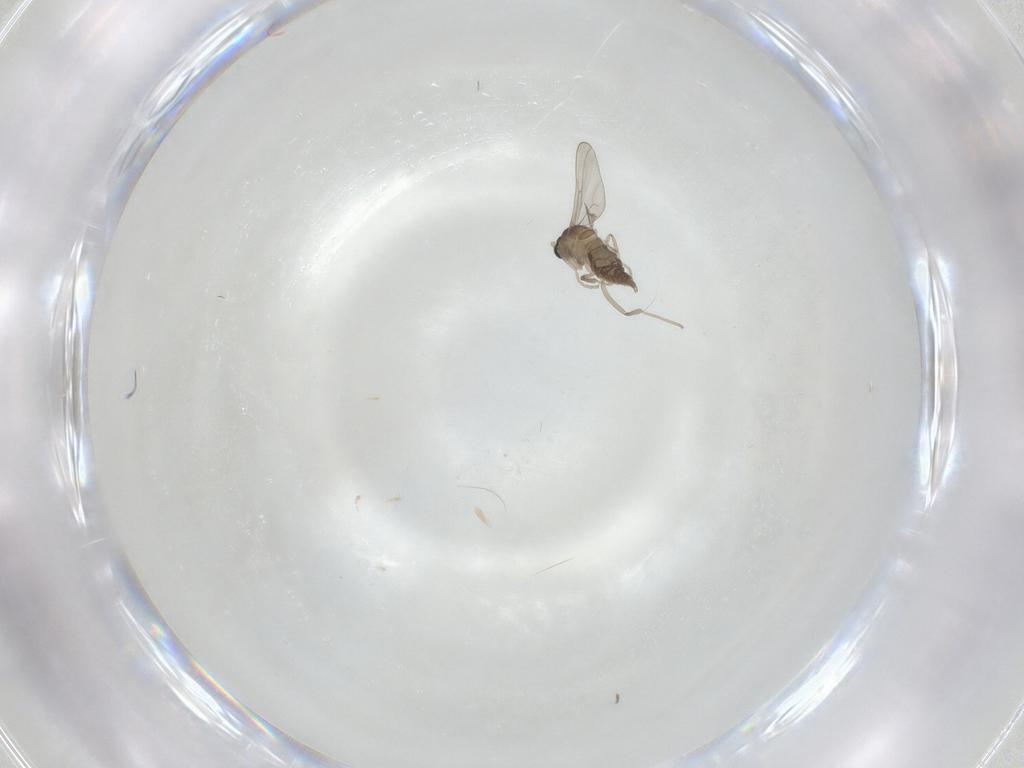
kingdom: Animalia
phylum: Arthropoda
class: Insecta
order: Diptera
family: Cecidomyiidae
